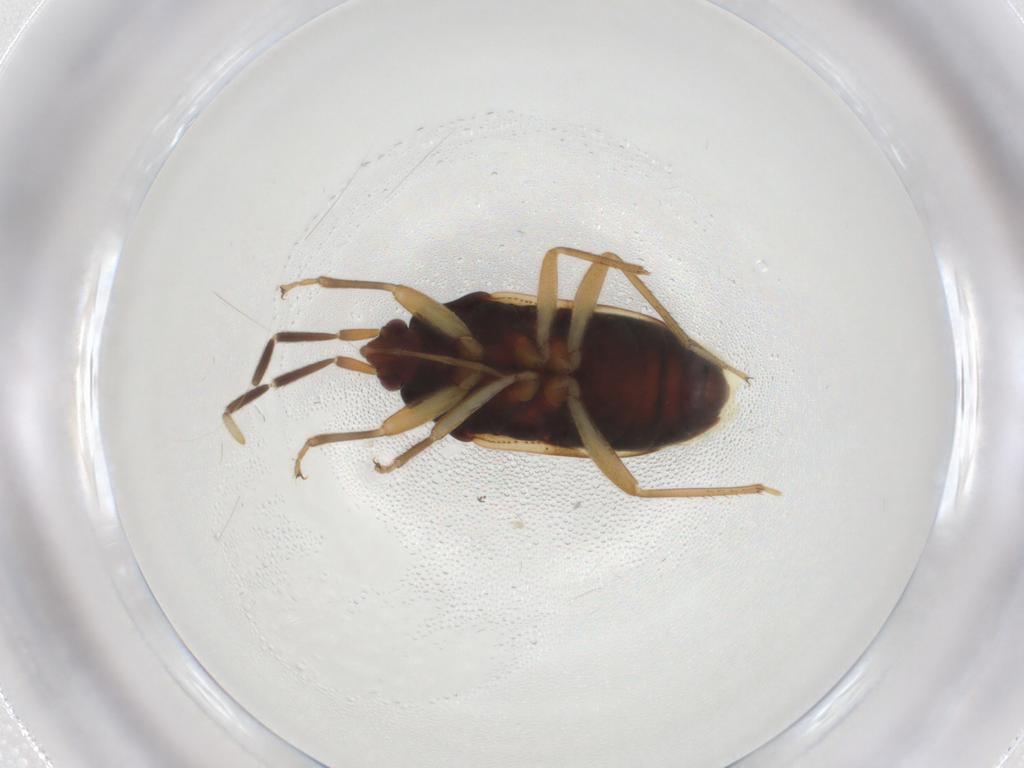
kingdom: Animalia
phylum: Arthropoda
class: Insecta
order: Hemiptera
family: Rhyparochromidae
